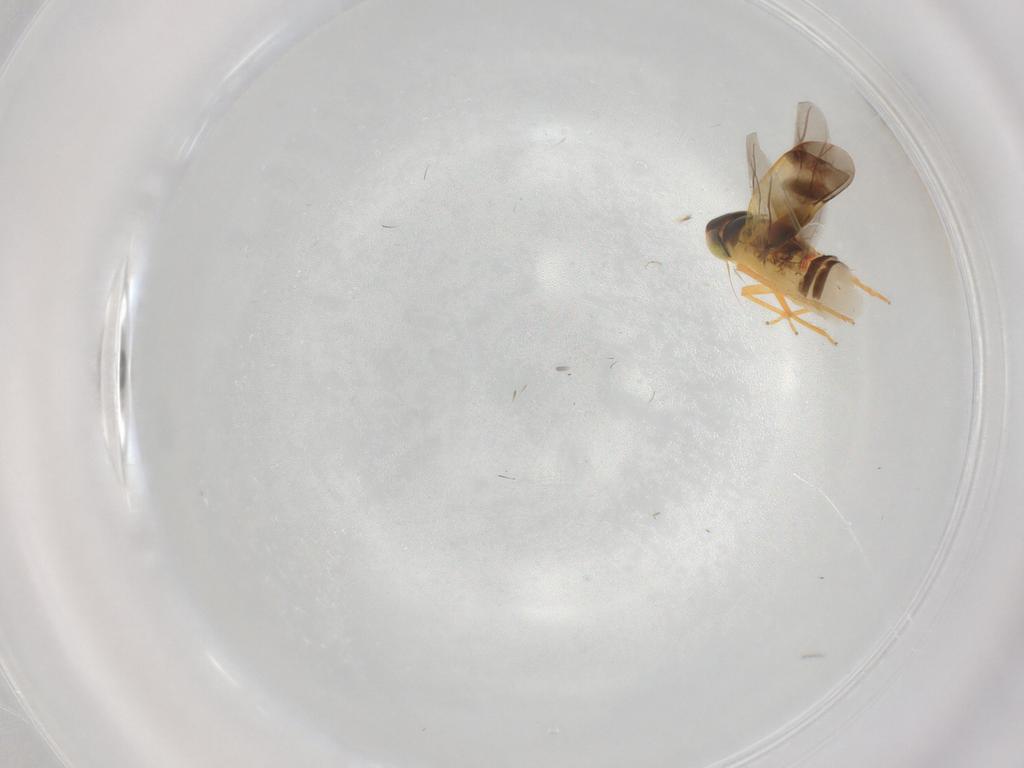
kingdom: Animalia
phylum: Arthropoda
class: Insecta
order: Hemiptera
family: Cicadellidae
